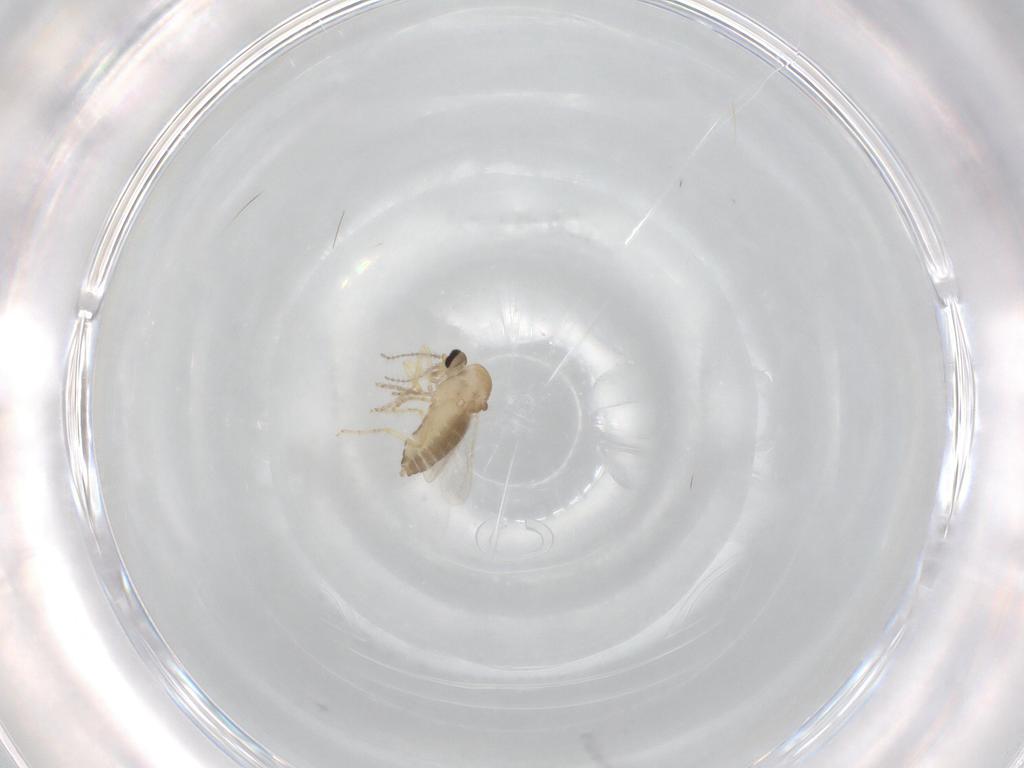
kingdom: Animalia
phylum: Arthropoda
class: Insecta
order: Diptera
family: Ceratopogonidae
